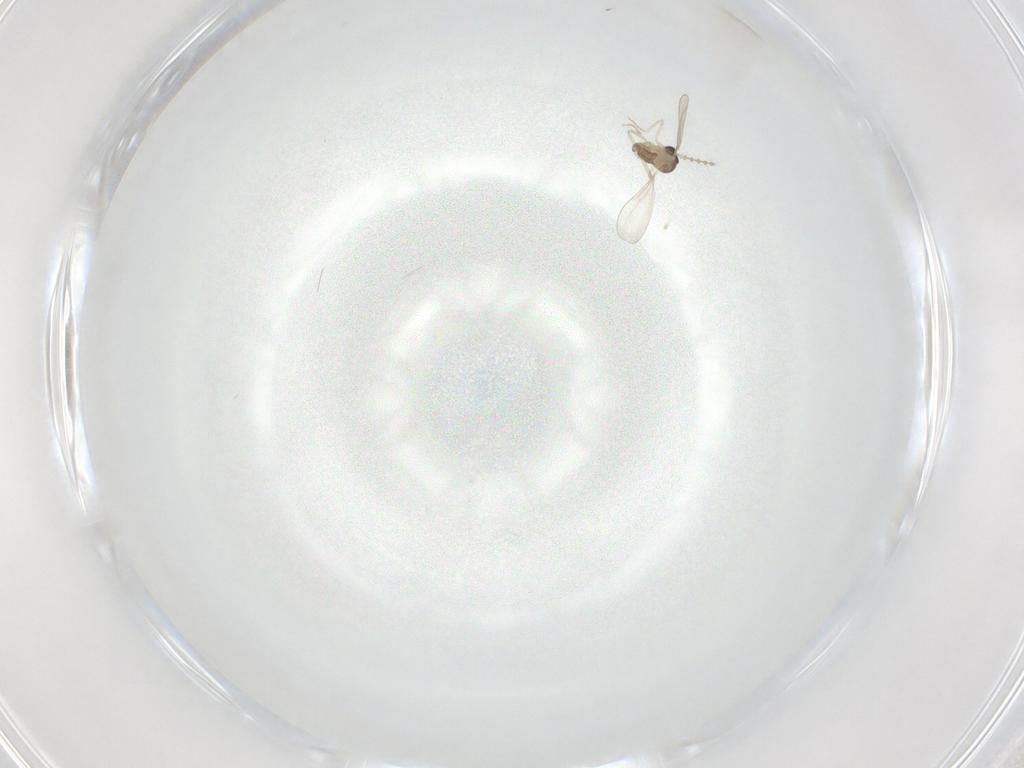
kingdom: Animalia
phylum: Arthropoda
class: Insecta
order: Diptera
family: Cecidomyiidae
